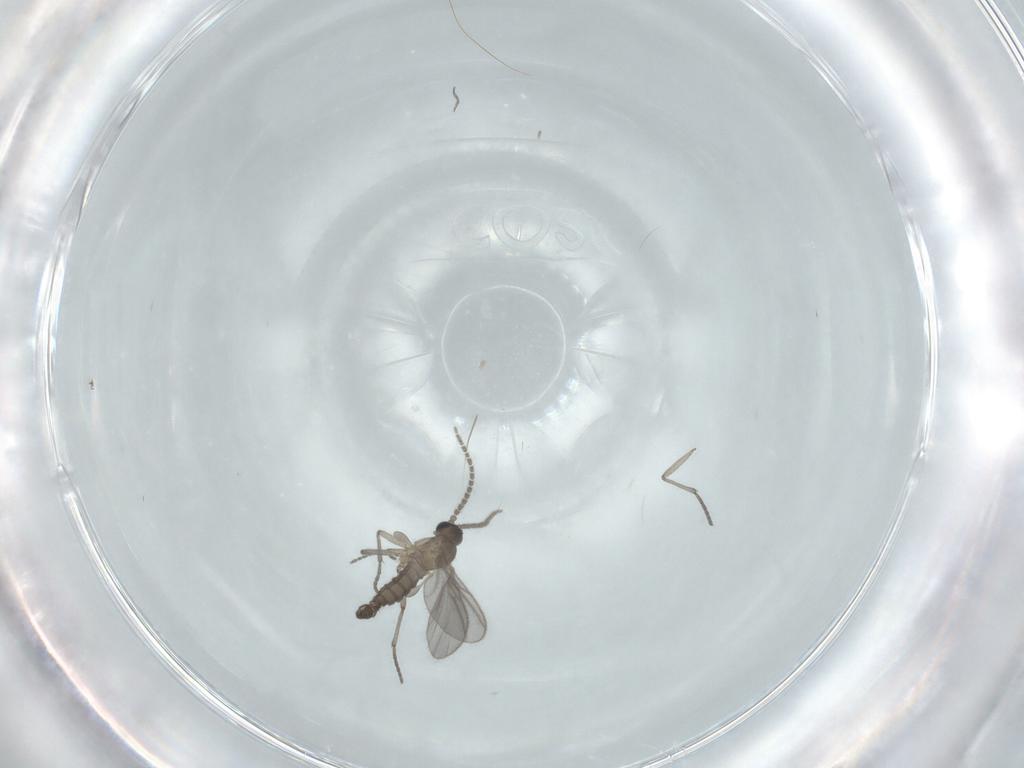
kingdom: Animalia
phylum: Arthropoda
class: Insecta
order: Diptera
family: Sciaridae
